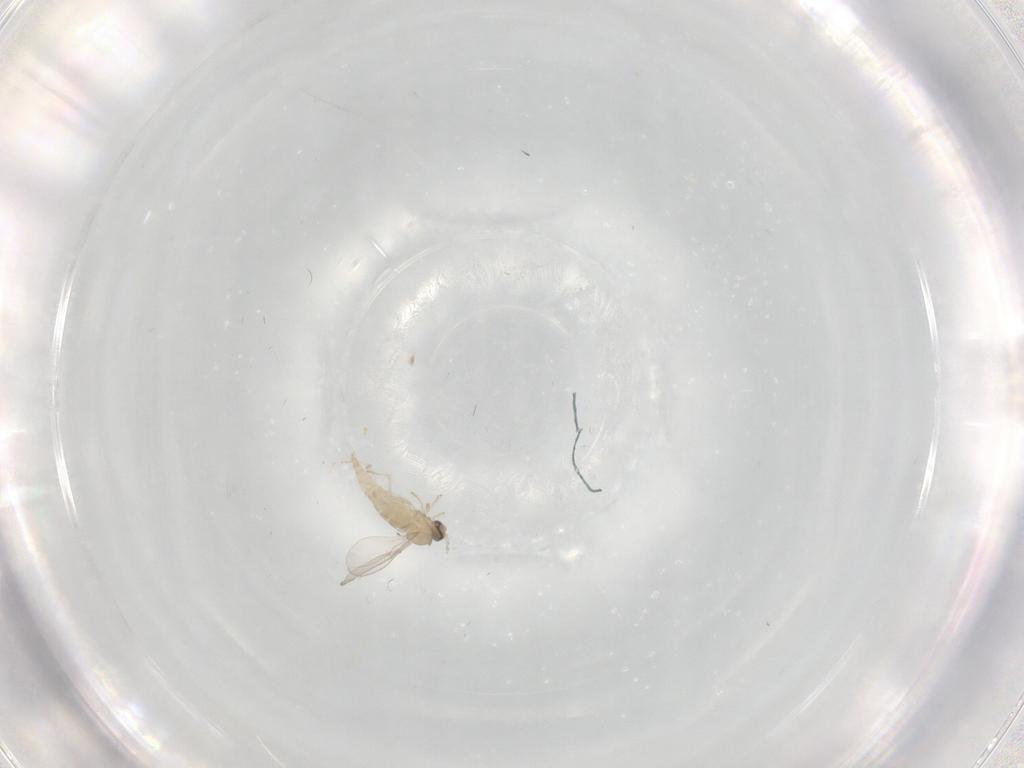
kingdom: Animalia
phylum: Arthropoda
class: Insecta
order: Diptera
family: Cecidomyiidae
